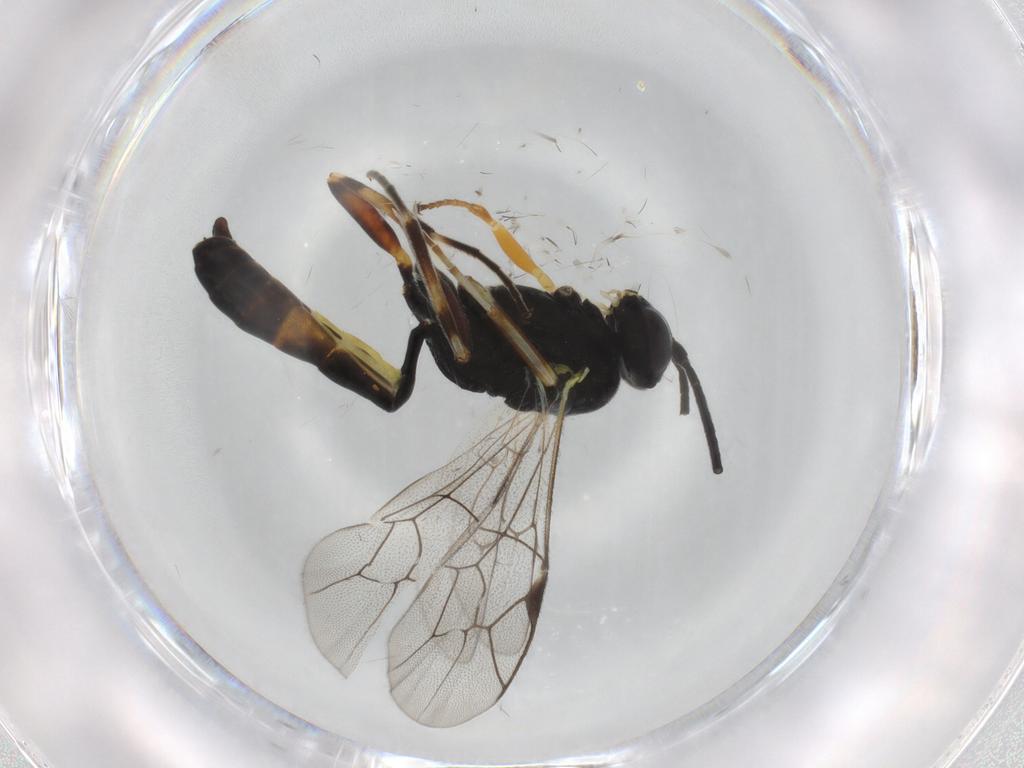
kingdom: Animalia
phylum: Arthropoda
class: Insecta
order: Hymenoptera
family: Ichneumonidae
